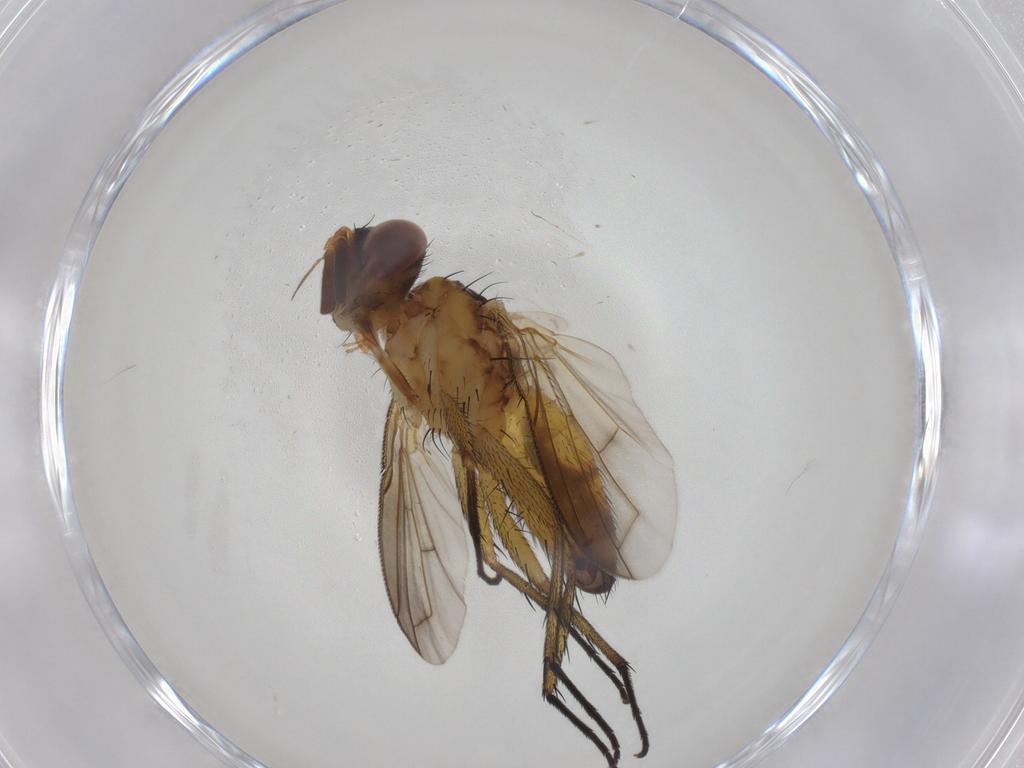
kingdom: Animalia
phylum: Arthropoda
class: Insecta
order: Diptera
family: Tachinidae
